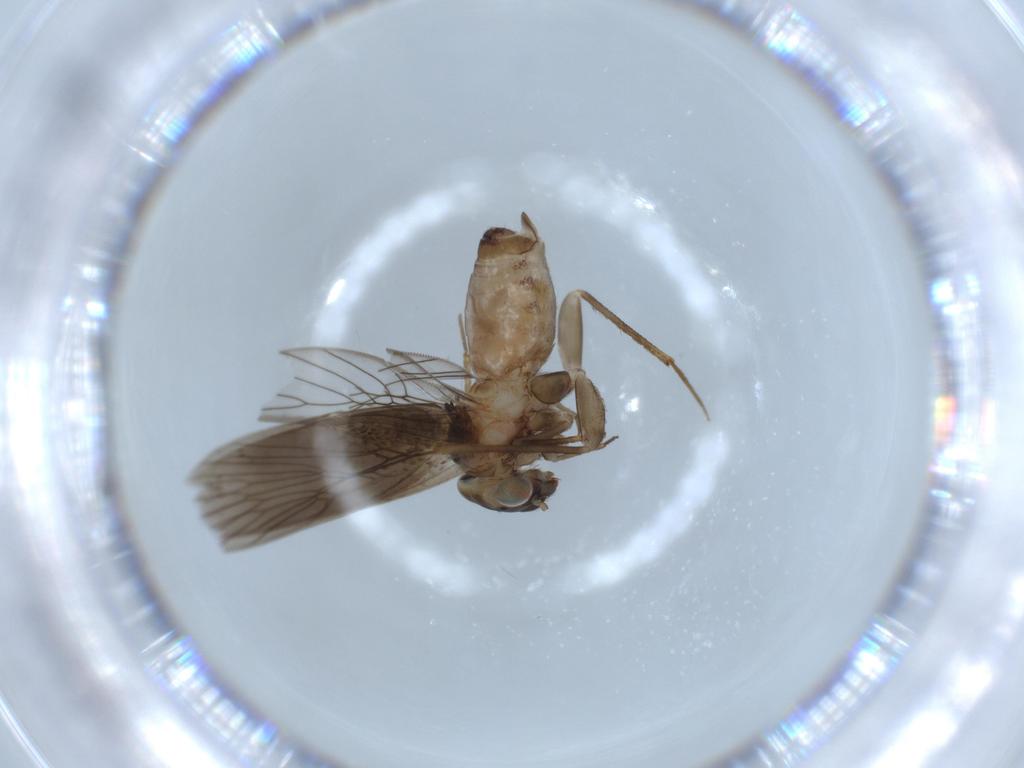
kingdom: Animalia
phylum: Arthropoda
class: Insecta
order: Psocodea
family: Lepidopsocidae
